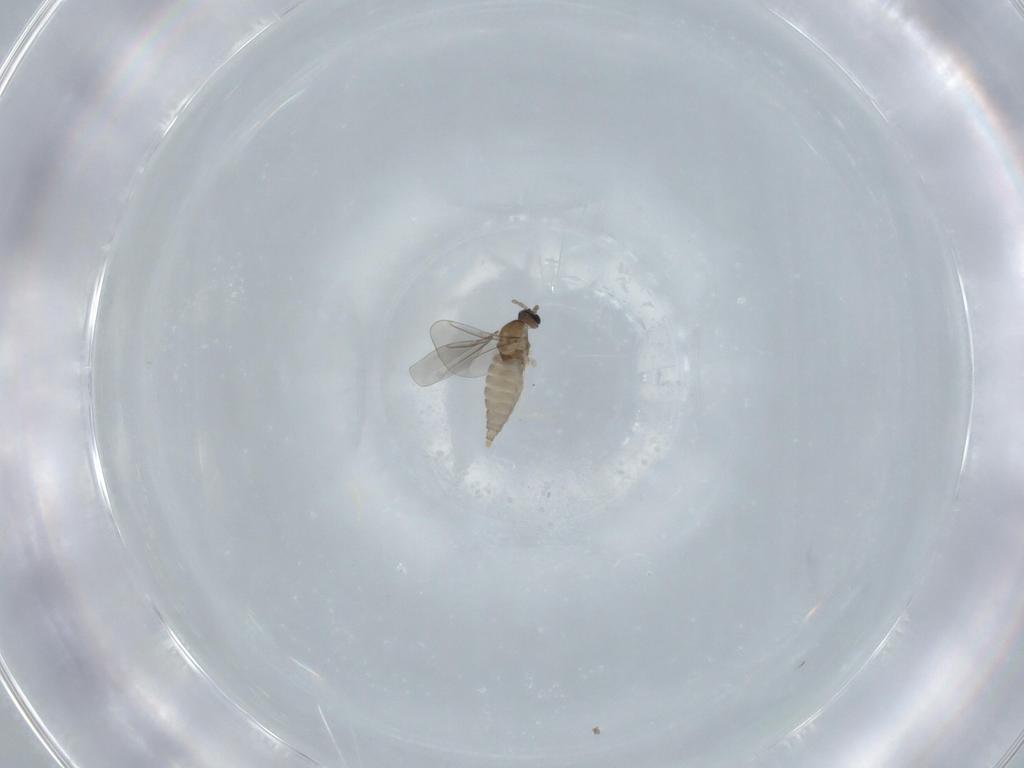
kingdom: Animalia
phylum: Arthropoda
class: Insecta
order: Diptera
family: Cecidomyiidae
